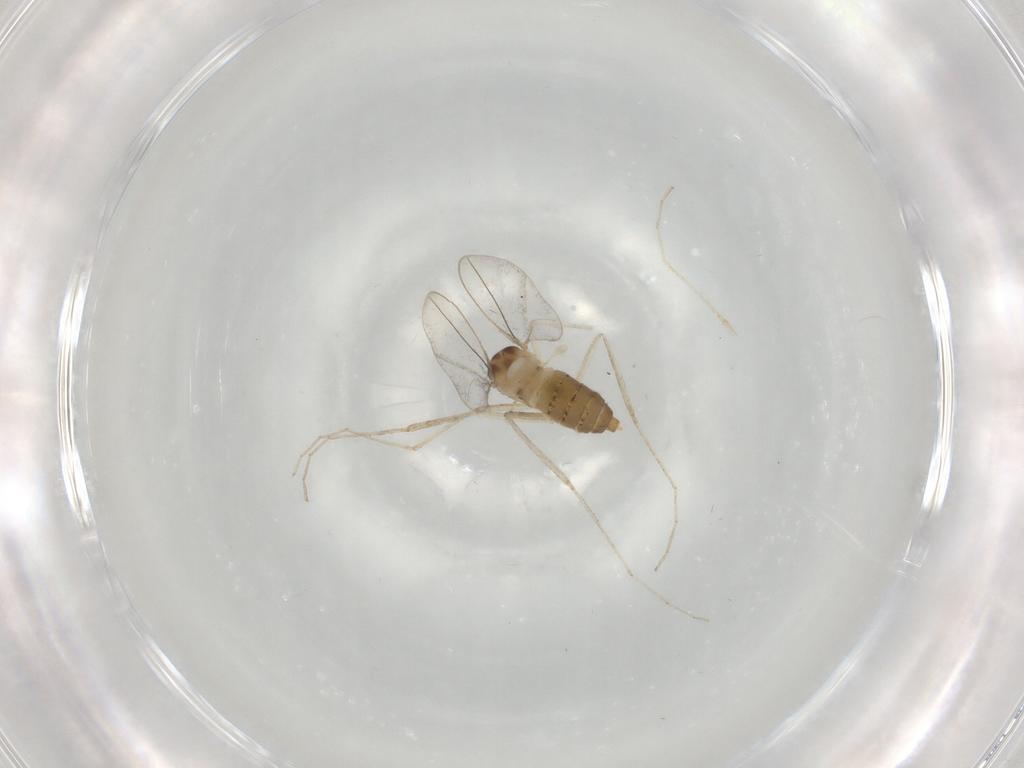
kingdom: Animalia
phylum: Arthropoda
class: Insecta
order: Diptera
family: Cecidomyiidae
